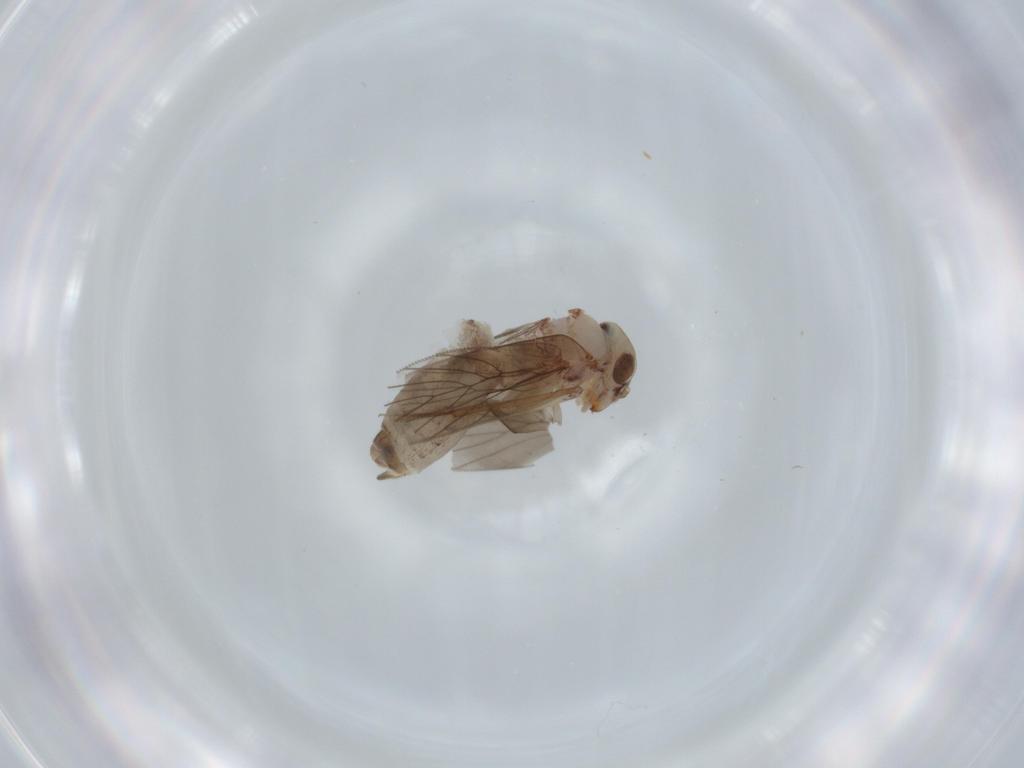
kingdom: Animalia
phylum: Arthropoda
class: Insecta
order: Psocodea
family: Lepidopsocidae
